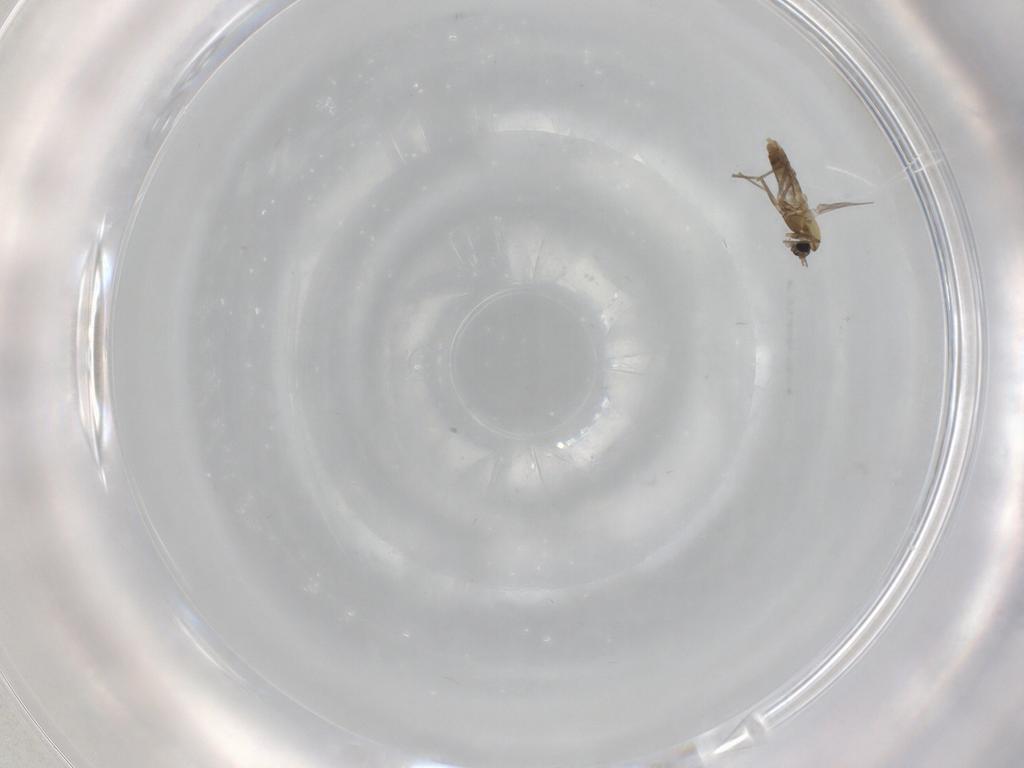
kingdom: Animalia
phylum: Arthropoda
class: Insecta
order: Diptera
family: Chironomidae
